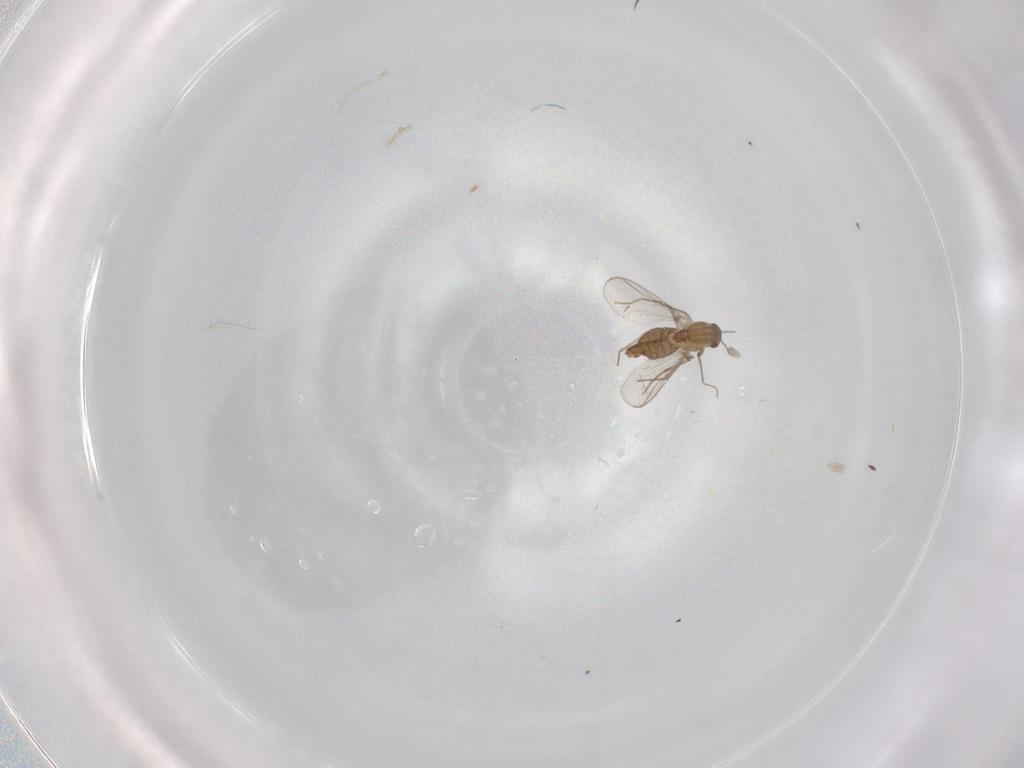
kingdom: Animalia
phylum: Arthropoda
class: Insecta
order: Diptera
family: Chironomidae
